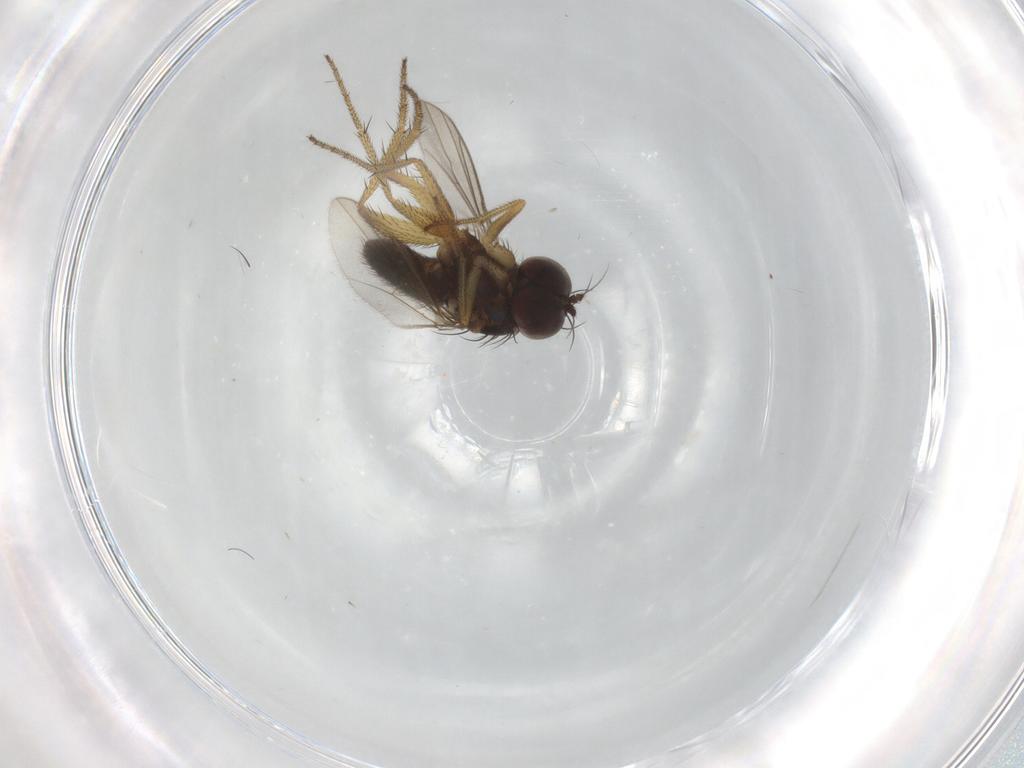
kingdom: Animalia
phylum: Arthropoda
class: Insecta
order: Diptera
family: Dolichopodidae
